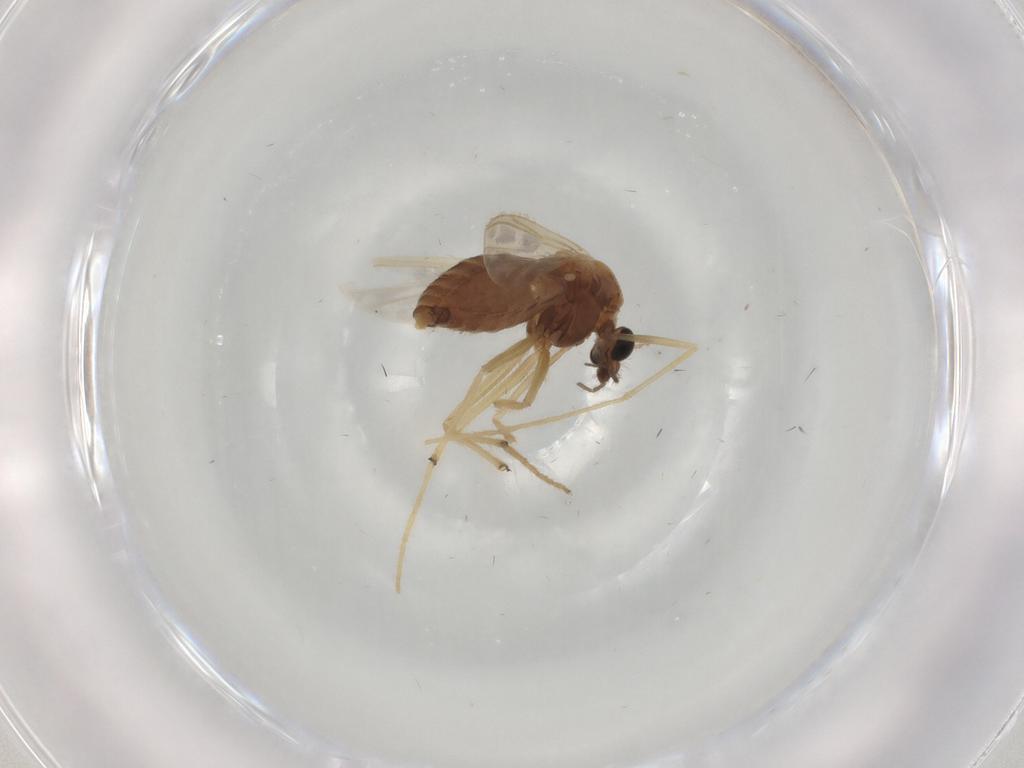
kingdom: Animalia
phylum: Arthropoda
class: Insecta
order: Diptera
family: Chironomidae
